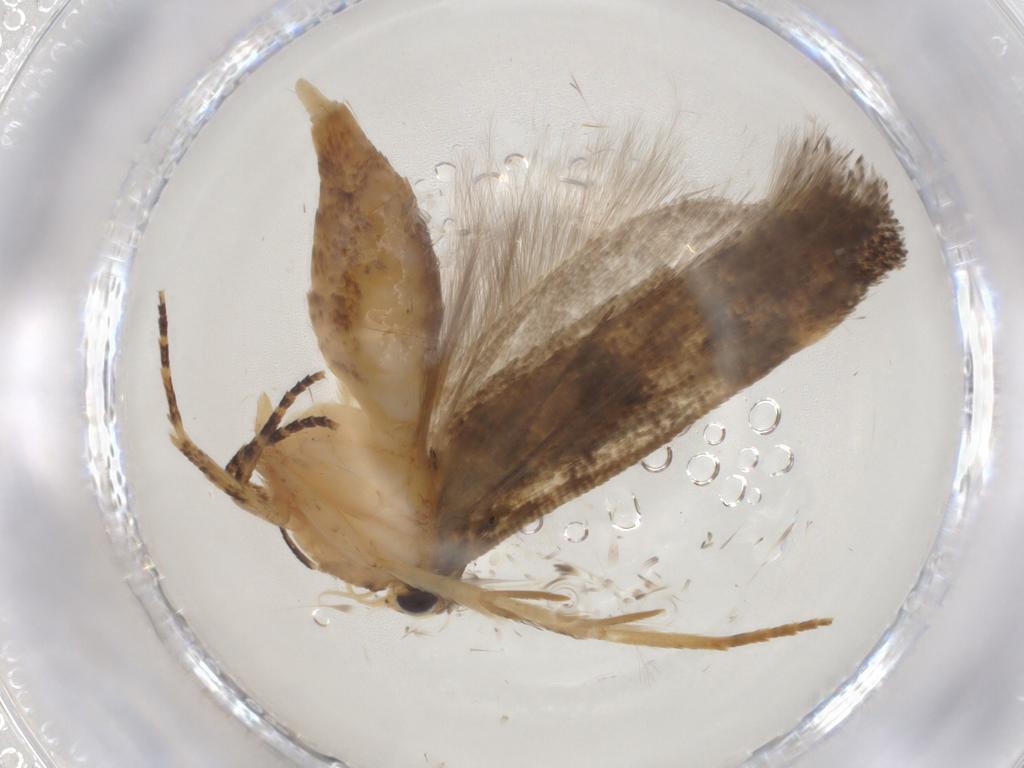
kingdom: Animalia
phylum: Arthropoda
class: Insecta
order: Lepidoptera
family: Gelechiidae
